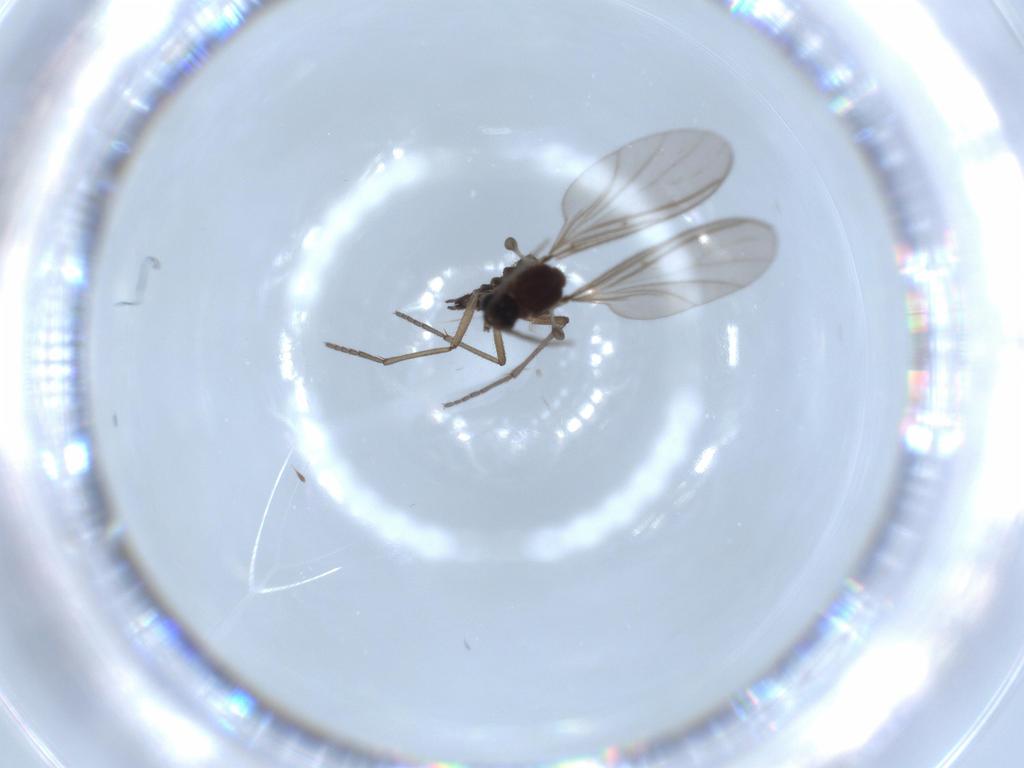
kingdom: Animalia
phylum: Arthropoda
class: Insecta
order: Diptera
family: Sciaridae
